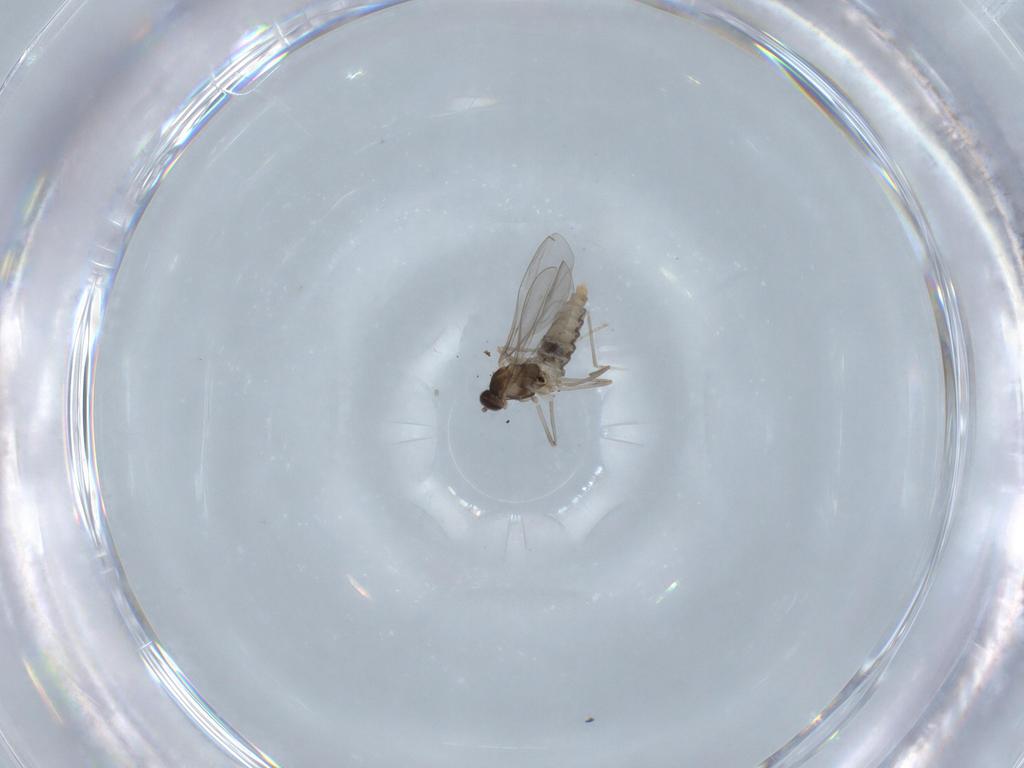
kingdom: Animalia
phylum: Arthropoda
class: Insecta
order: Diptera
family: Cecidomyiidae
